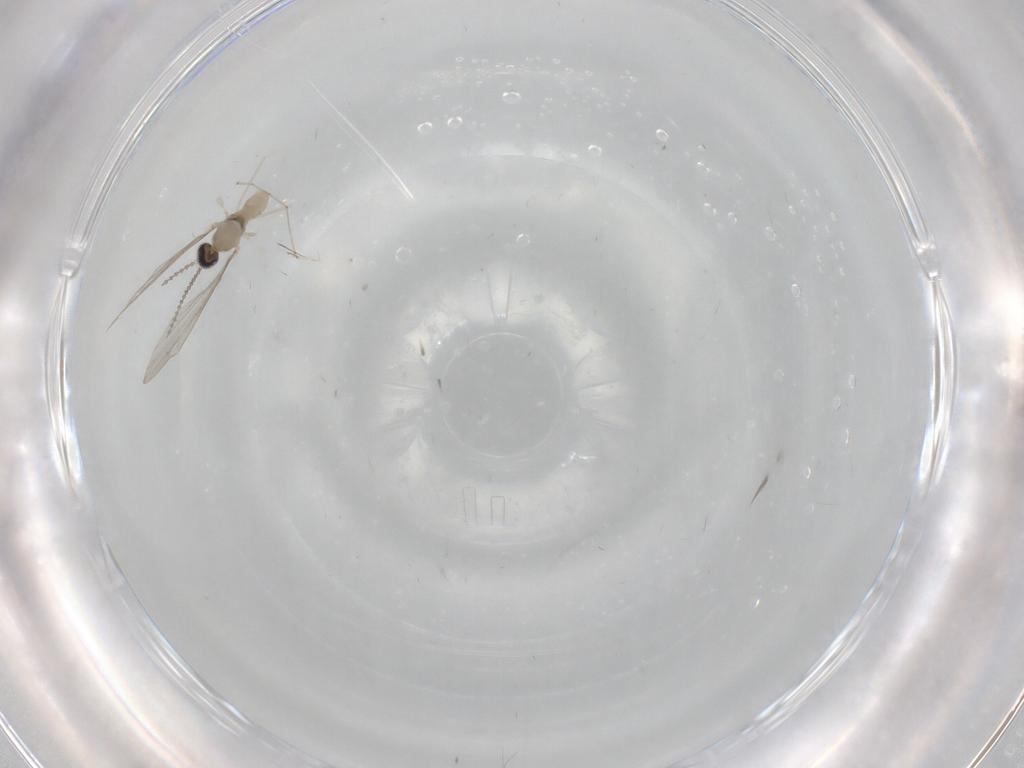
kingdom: Animalia
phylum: Arthropoda
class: Insecta
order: Diptera
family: Cecidomyiidae
